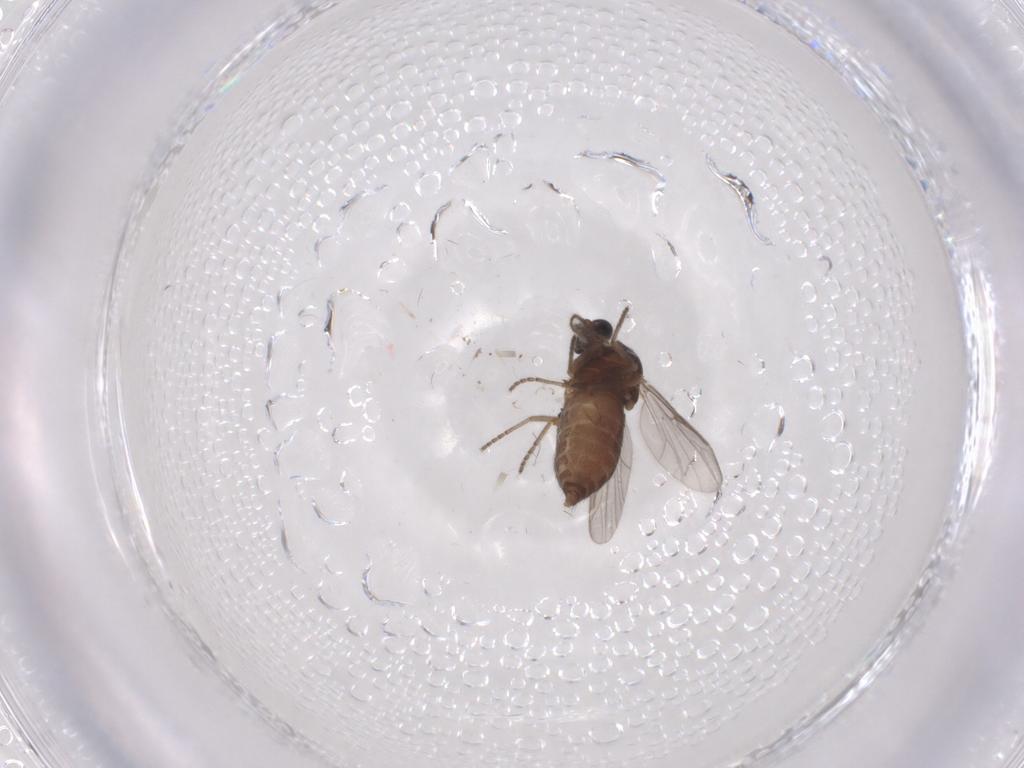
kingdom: Animalia
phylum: Arthropoda
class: Insecta
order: Diptera
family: Ceratopogonidae
